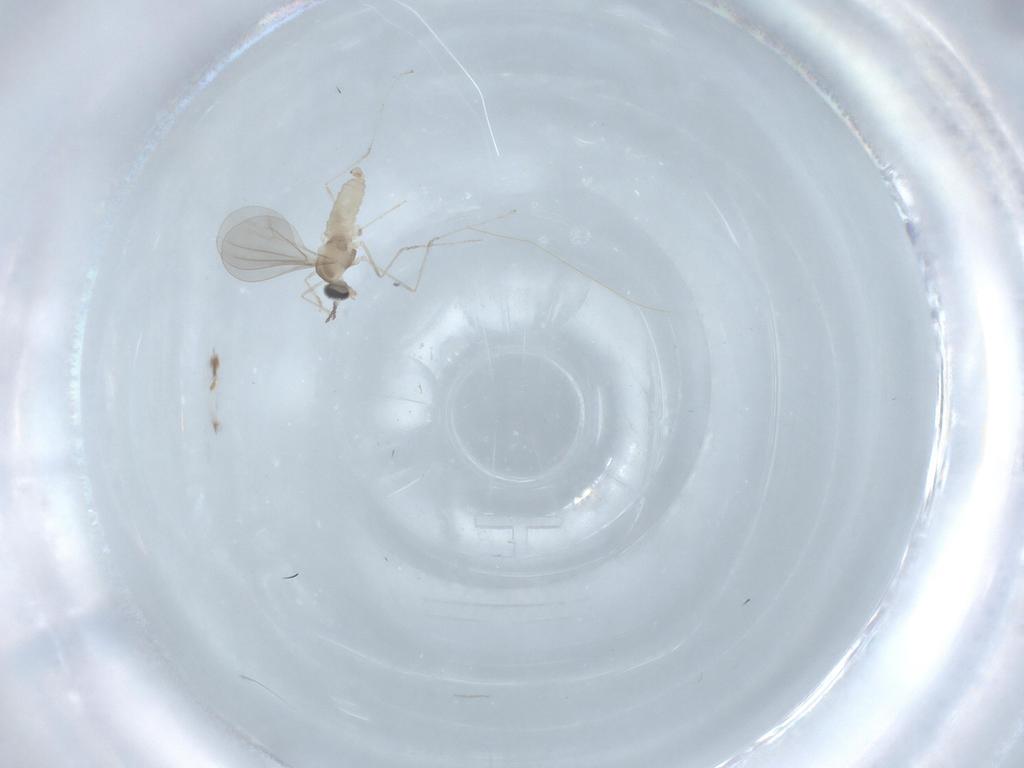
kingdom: Animalia
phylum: Arthropoda
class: Insecta
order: Diptera
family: Cecidomyiidae
